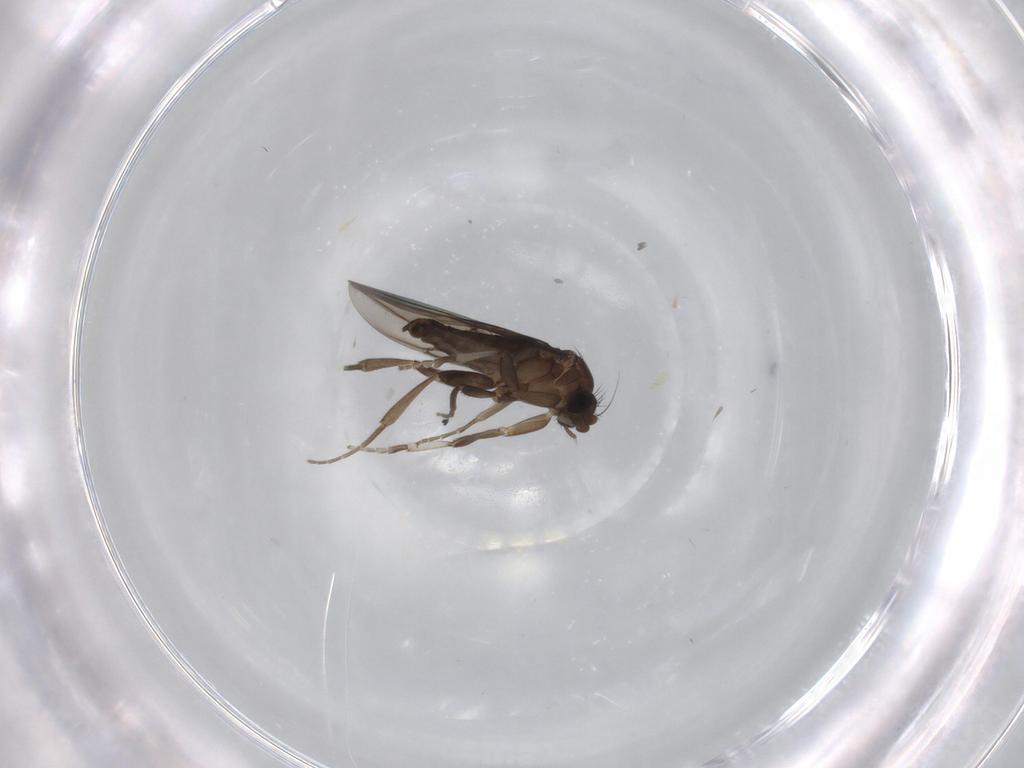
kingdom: Animalia
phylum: Arthropoda
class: Insecta
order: Diptera
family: Phoridae
